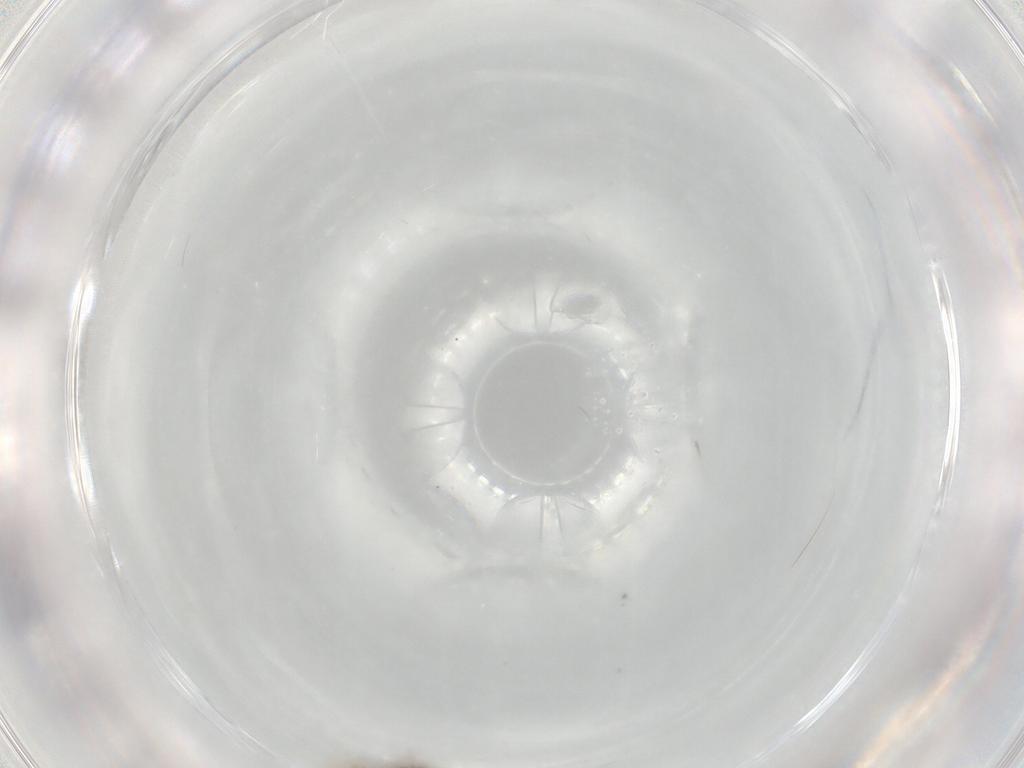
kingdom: Animalia
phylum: Arthropoda
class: Insecta
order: Diptera
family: Chironomidae
